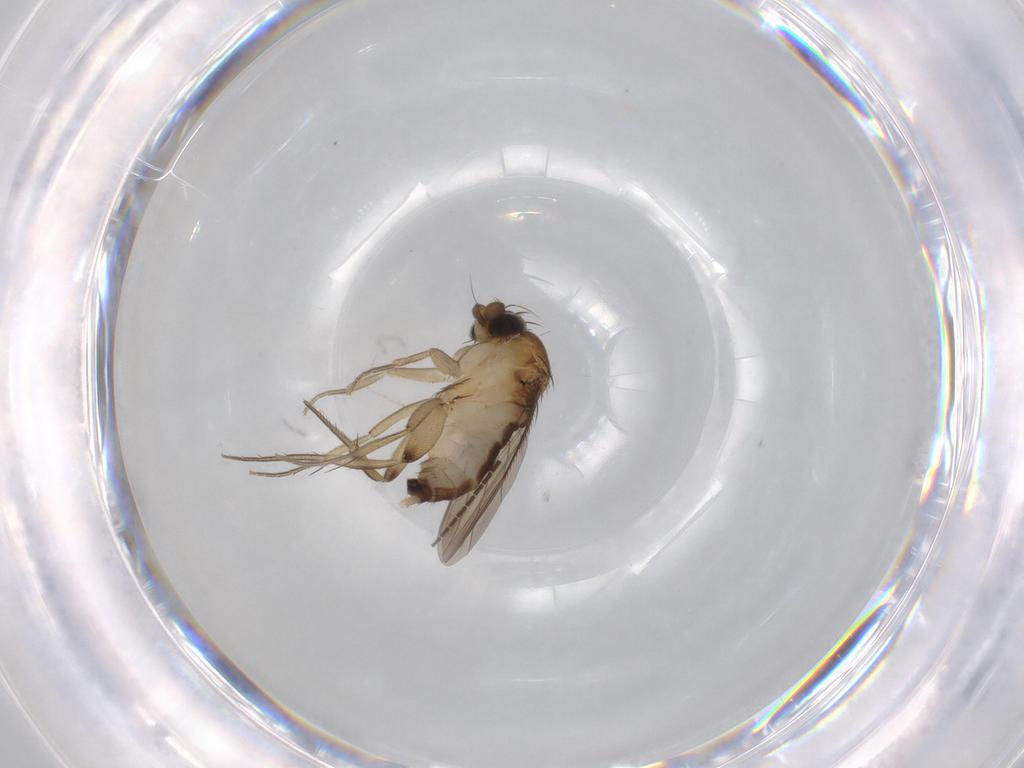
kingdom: Animalia
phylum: Arthropoda
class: Insecta
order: Diptera
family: Phoridae
